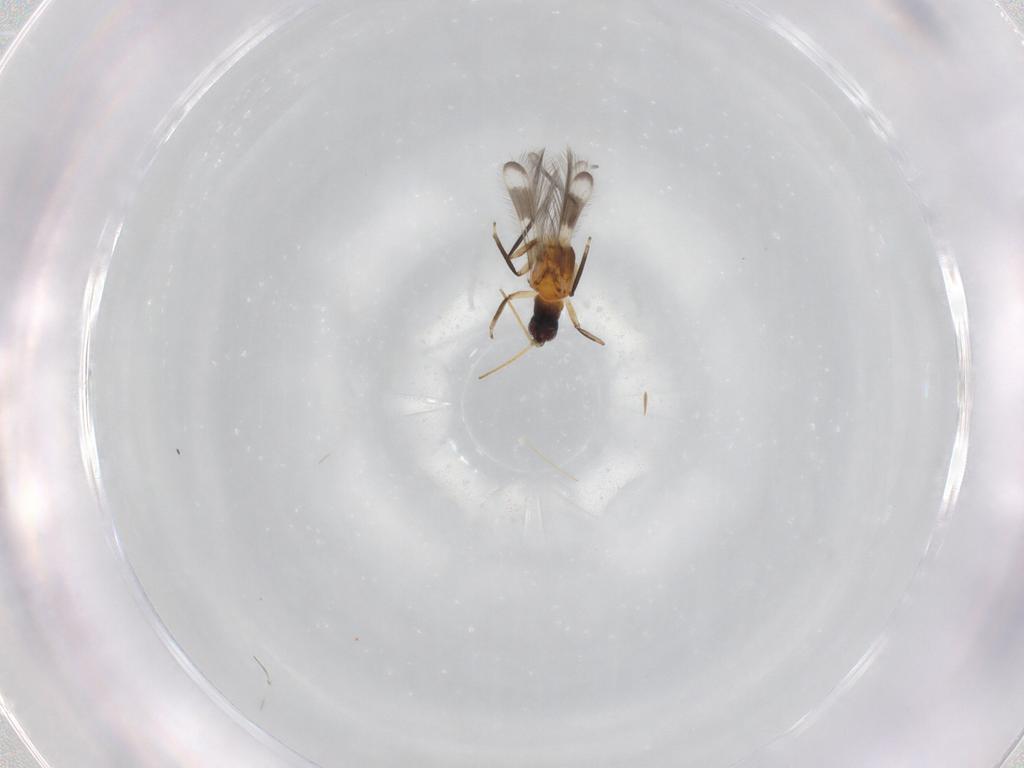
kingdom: Animalia
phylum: Arthropoda
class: Insecta
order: Thysanoptera
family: Aeolothripidae
